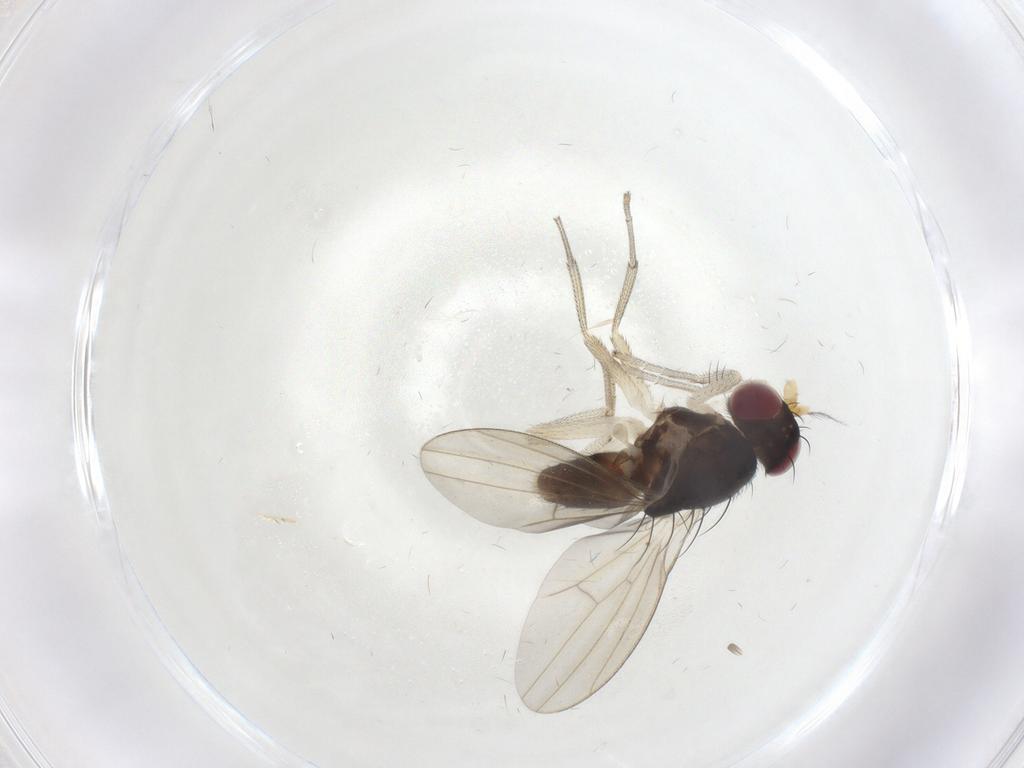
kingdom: Animalia
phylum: Arthropoda
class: Insecta
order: Diptera
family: Lauxaniidae
